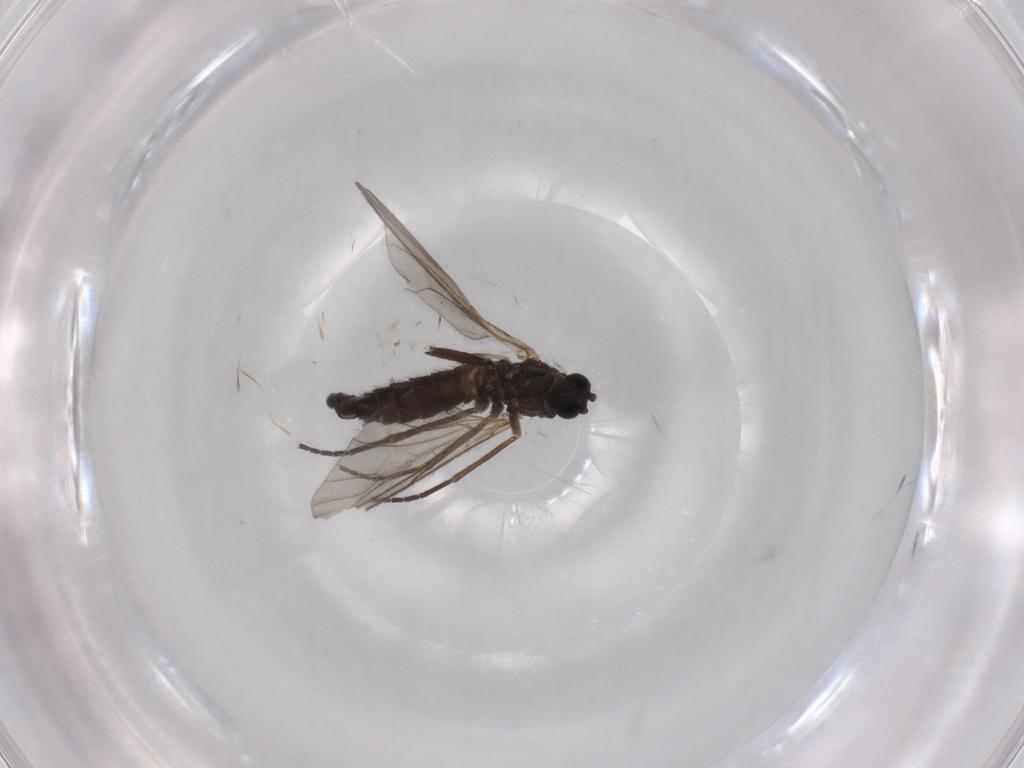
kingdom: Animalia
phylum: Arthropoda
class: Insecta
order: Diptera
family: Sciaridae
